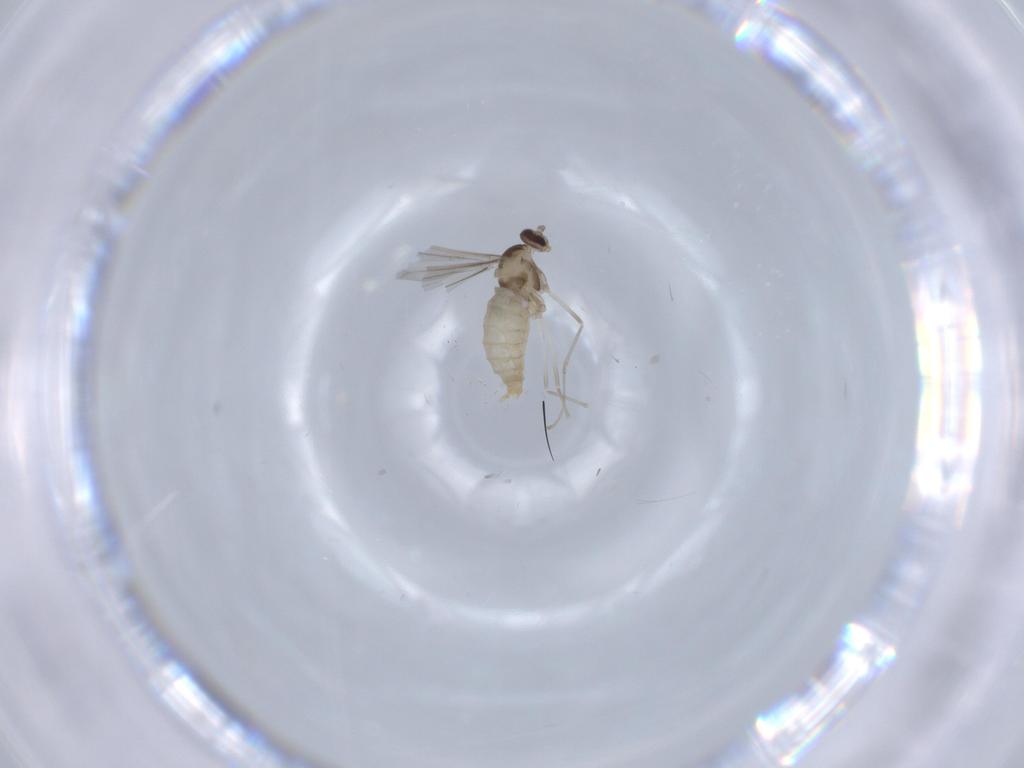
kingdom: Animalia
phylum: Arthropoda
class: Insecta
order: Diptera
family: Cecidomyiidae
